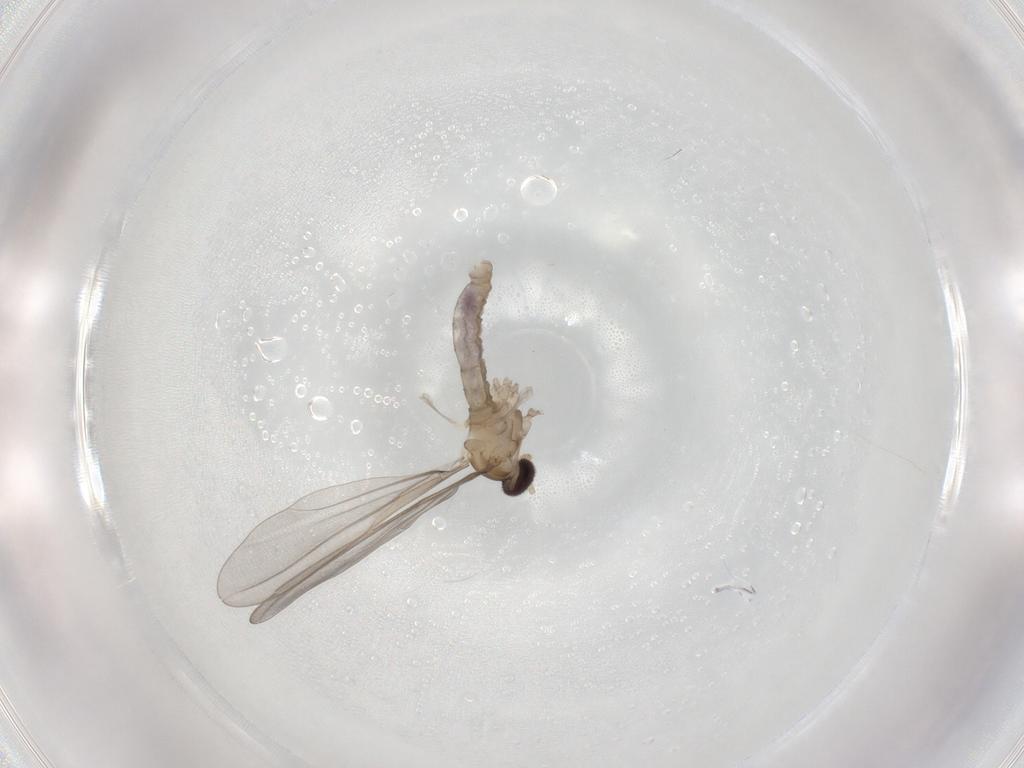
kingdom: Animalia
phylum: Arthropoda
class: Insecta
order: Diptera
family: Cecidomyiidae
